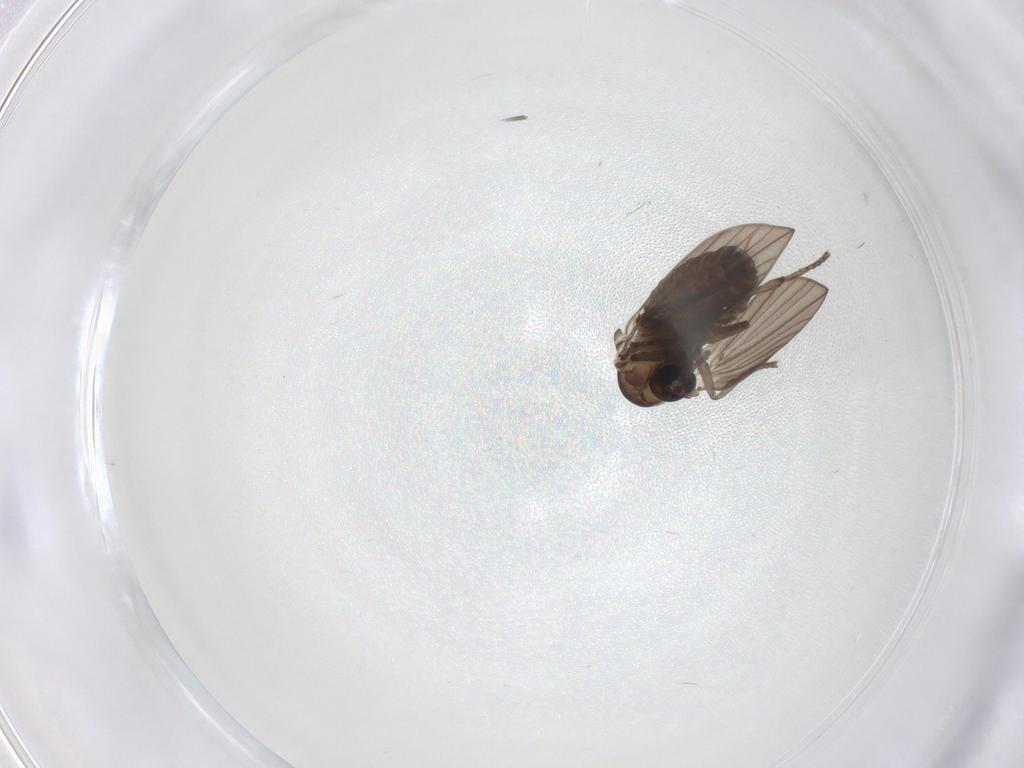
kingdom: Animalia
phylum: Arthropoda
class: Insecta
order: Diptera
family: Psychodidae
